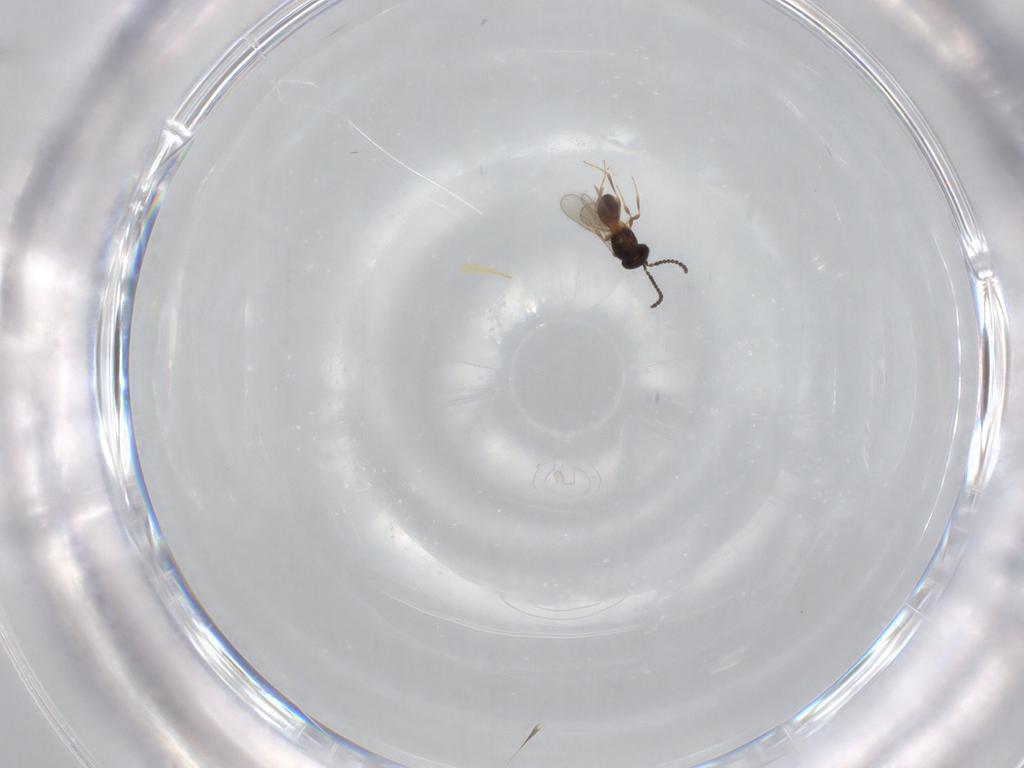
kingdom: Animalia
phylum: Arthropoda
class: Insecta
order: Hymenoptera
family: Scelionidae
